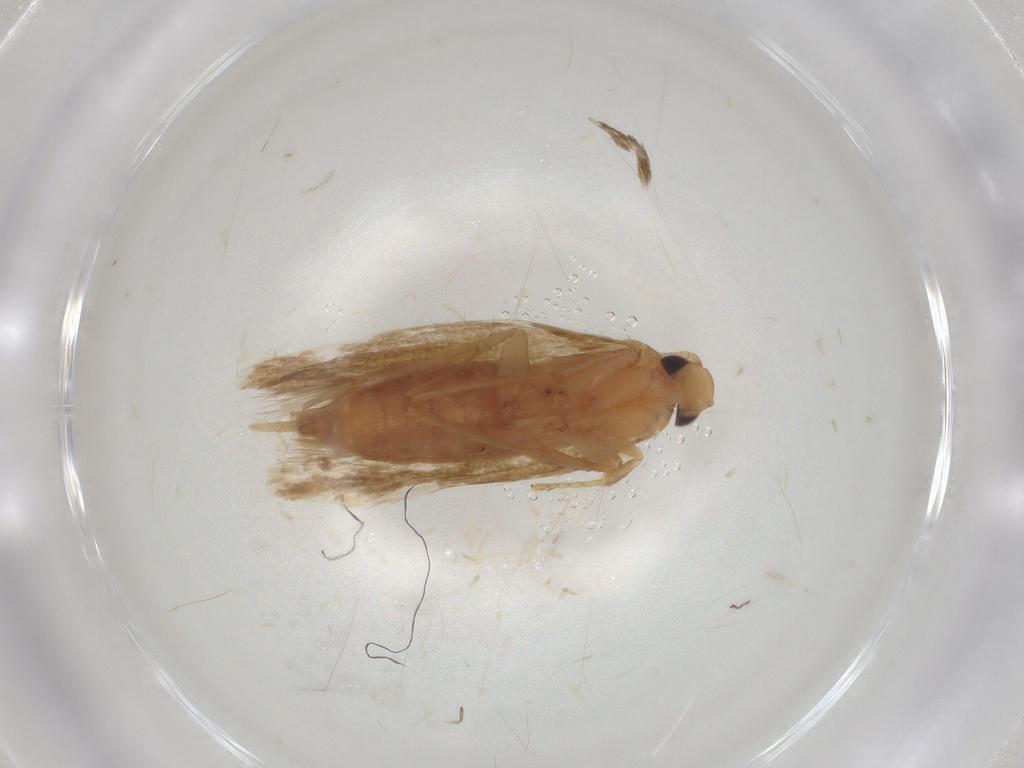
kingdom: Animalia
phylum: Arthropoda
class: Insecta
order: Lepidoptera
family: Tineidae
